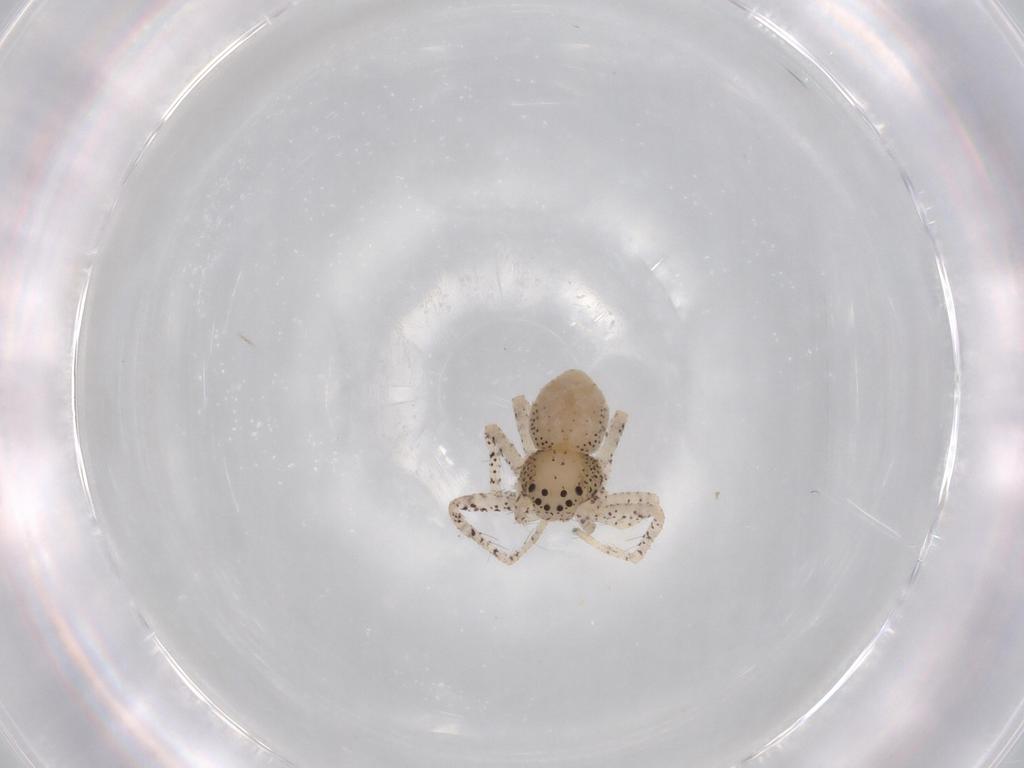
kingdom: Animalia
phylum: Arthropoda
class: Arachnida
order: Araneae
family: Philodromidae
